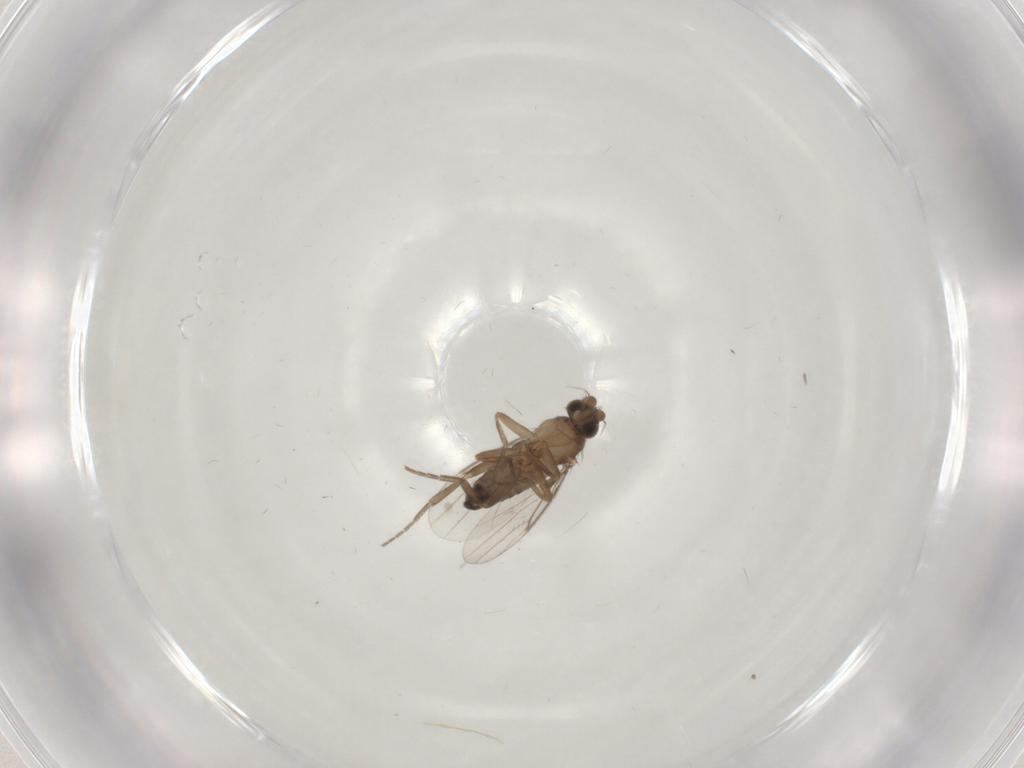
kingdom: Animalia
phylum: Arthropoda
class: Insecta
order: Diptera
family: Phoridae
